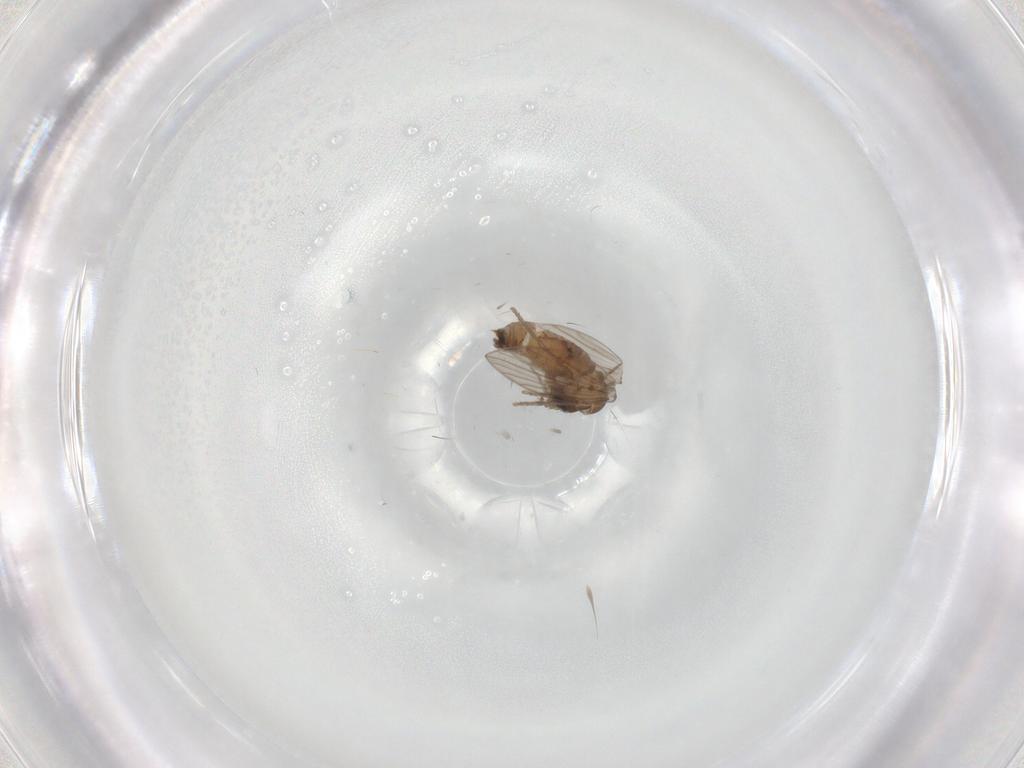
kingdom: Animalia
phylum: Arthropoda
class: Insecta
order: Diptera
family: Psychodidae
